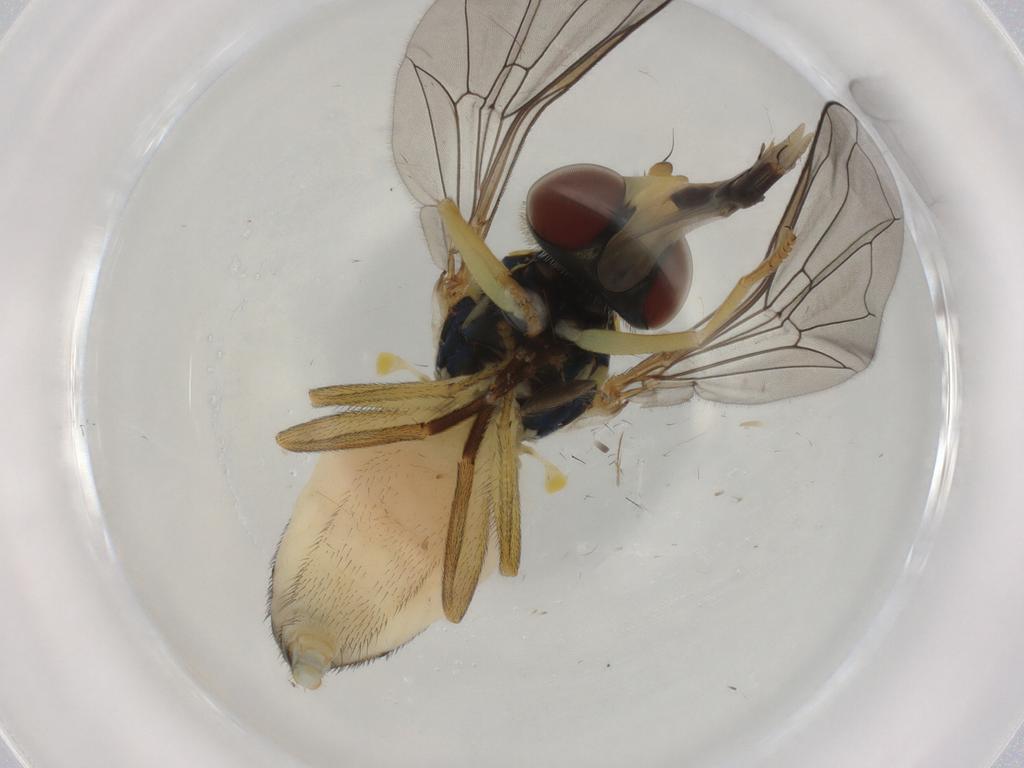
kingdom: Animalia
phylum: Arthropoda
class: Insecta
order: Diptera
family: Syrphidae
